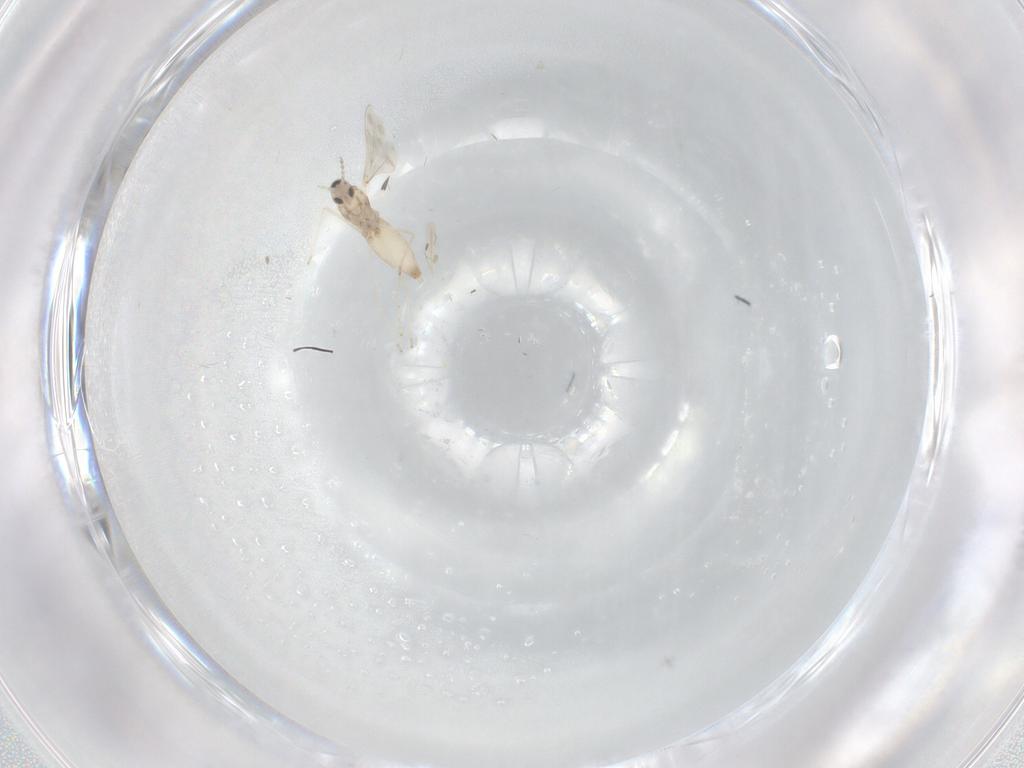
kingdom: Animalia
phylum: Arthropoda
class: Insecta
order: Diptera
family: Cecidomyiidae
